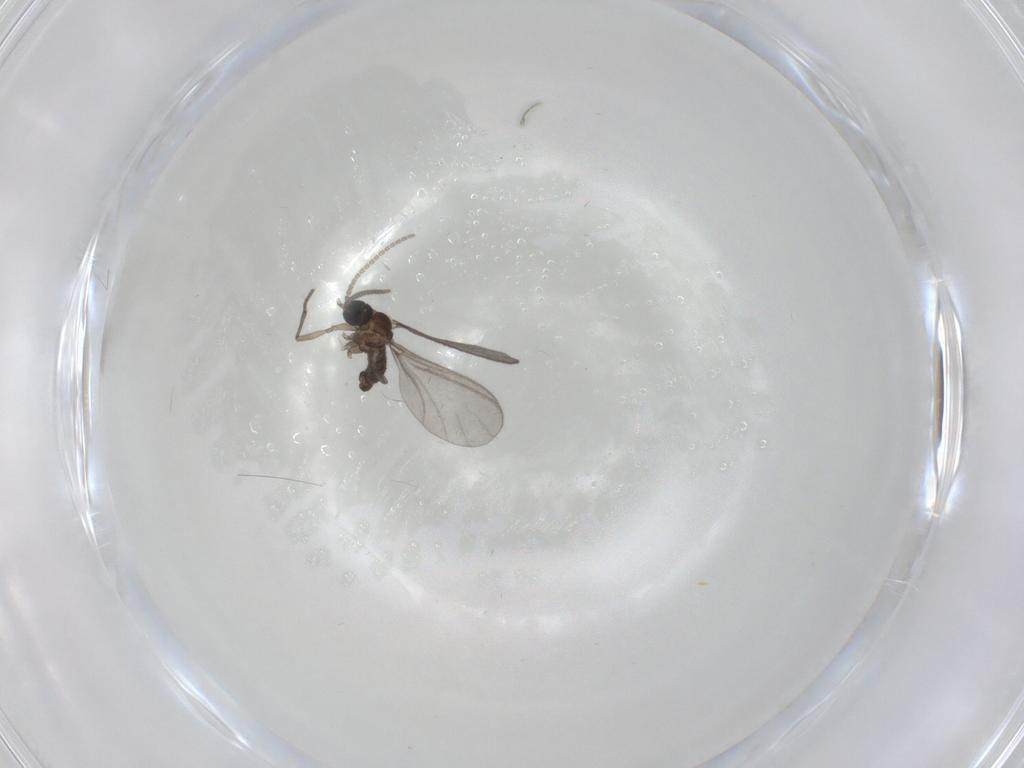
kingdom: Animalia
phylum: Arthropoda
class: Insecta
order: Diptera
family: Sciaridae
